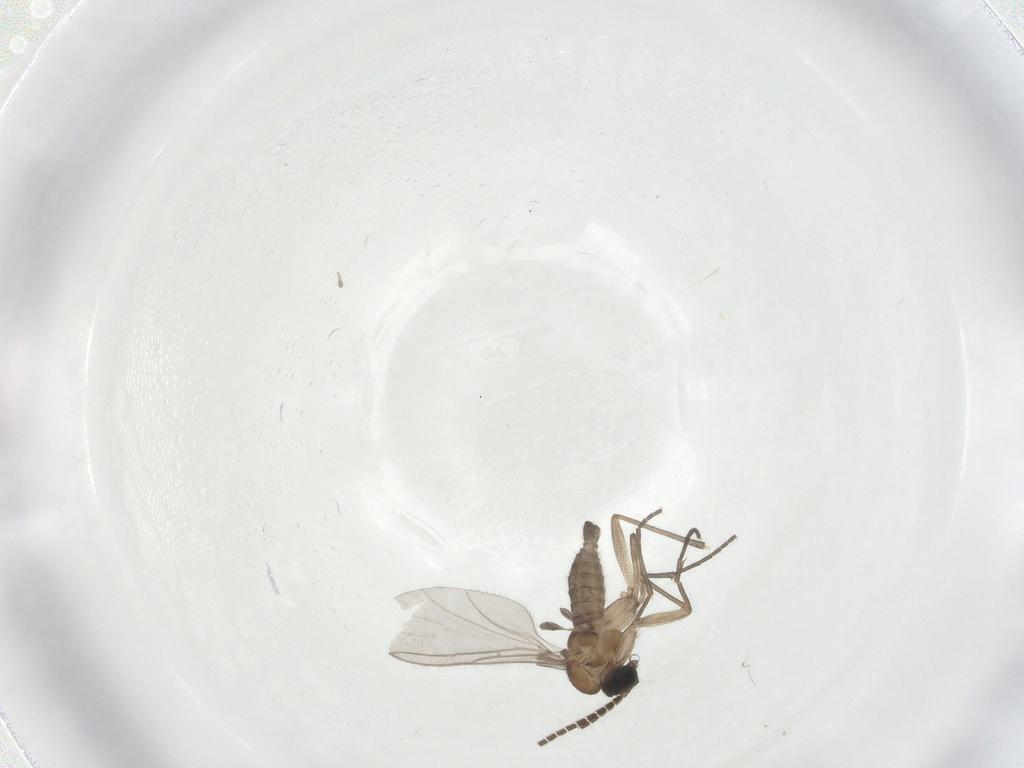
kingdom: Animalia
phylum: Arthropoda
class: Insecta
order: Diptera
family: Sciaridae
